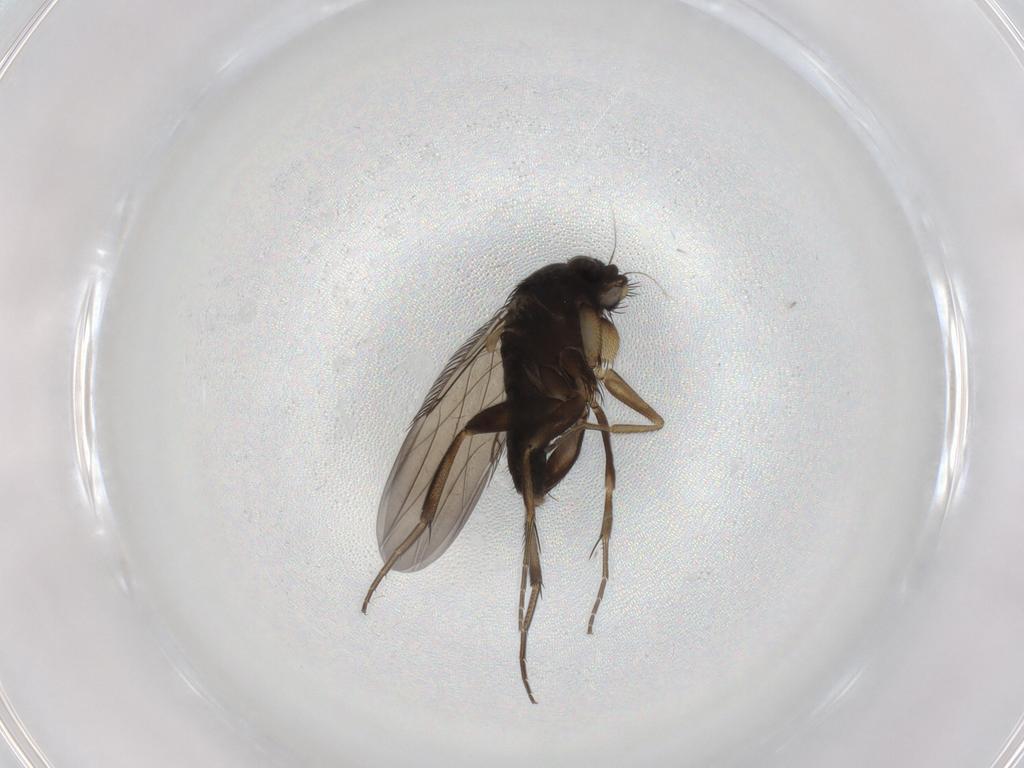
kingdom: Animalia
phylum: Arthropoda
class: Insecta
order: Diptera
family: Phoridae
